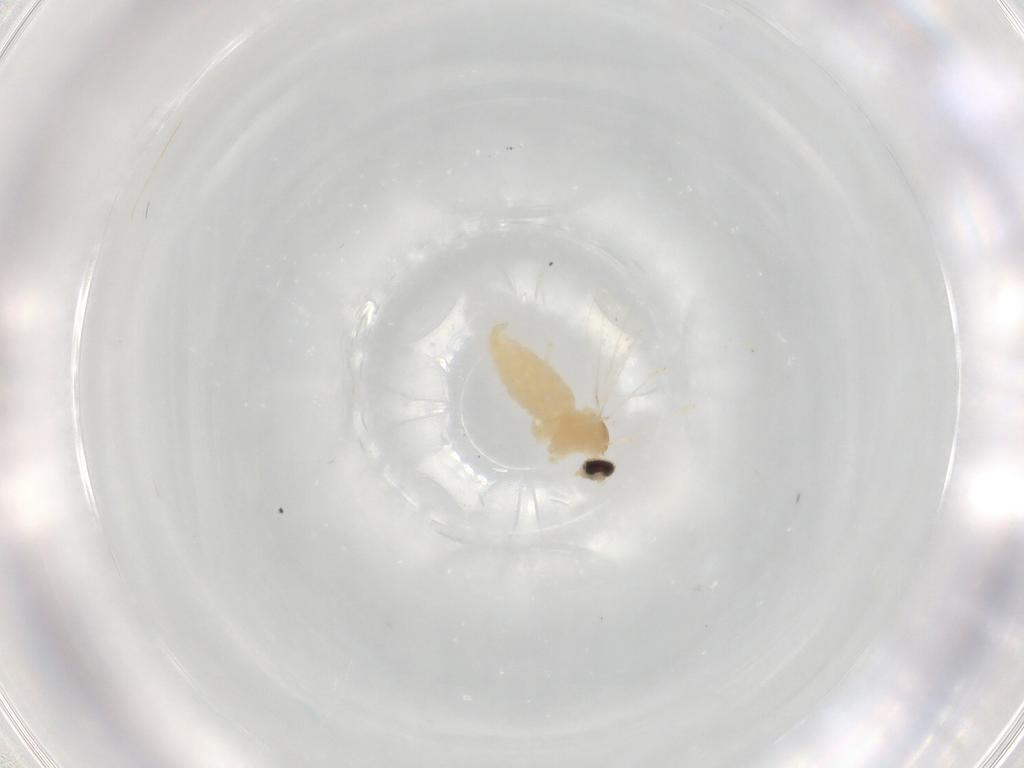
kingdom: Animalia
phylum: Arthropoda
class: Insecta
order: Diptera
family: Cecidomyiidae
